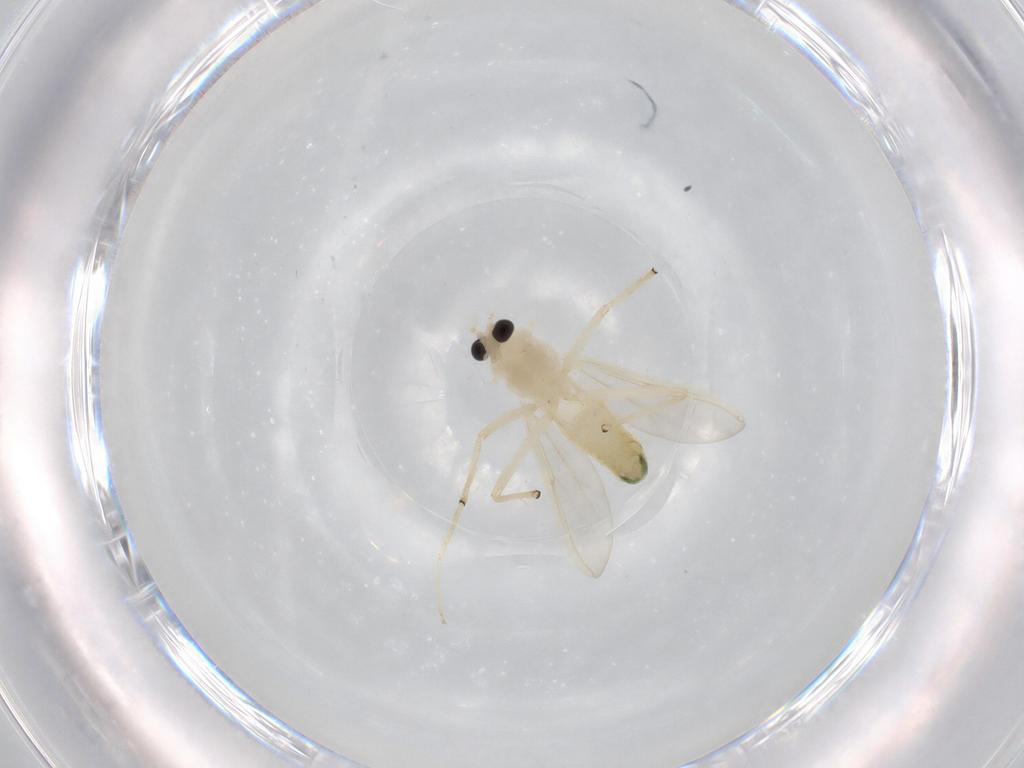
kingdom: Animalia
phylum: Arthropoda
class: Insecta
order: Diptera
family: Chironomidae
